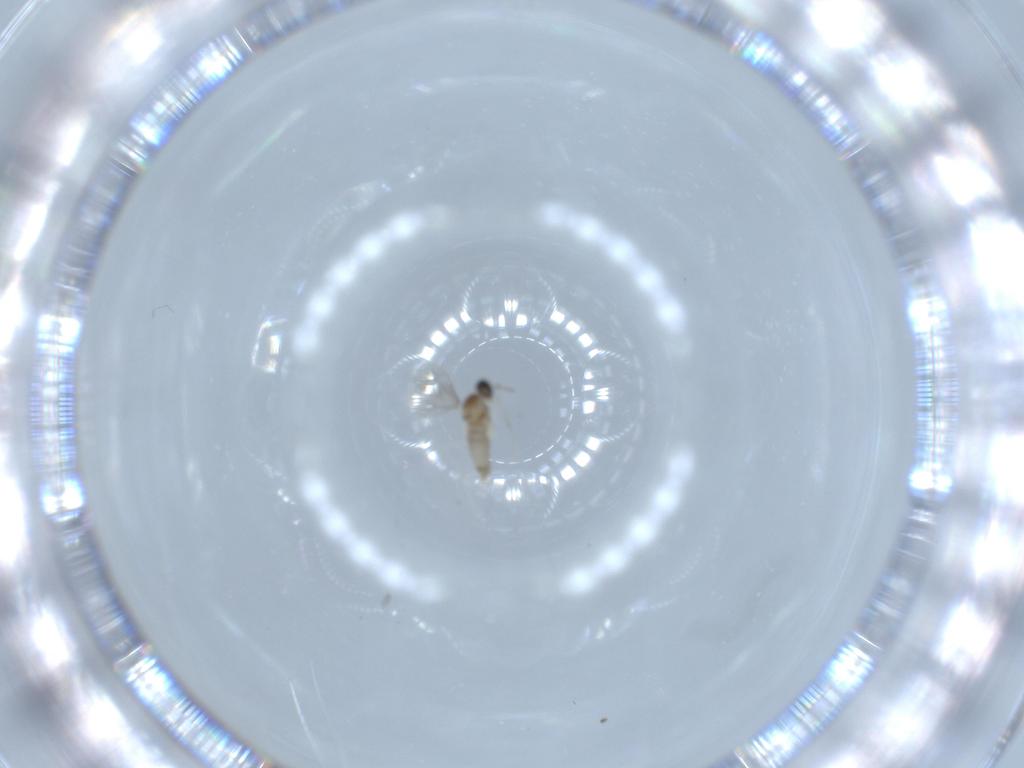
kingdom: Animalia
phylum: Arthropoda
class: Insecta
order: Diptera
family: Cecidomyiidae
